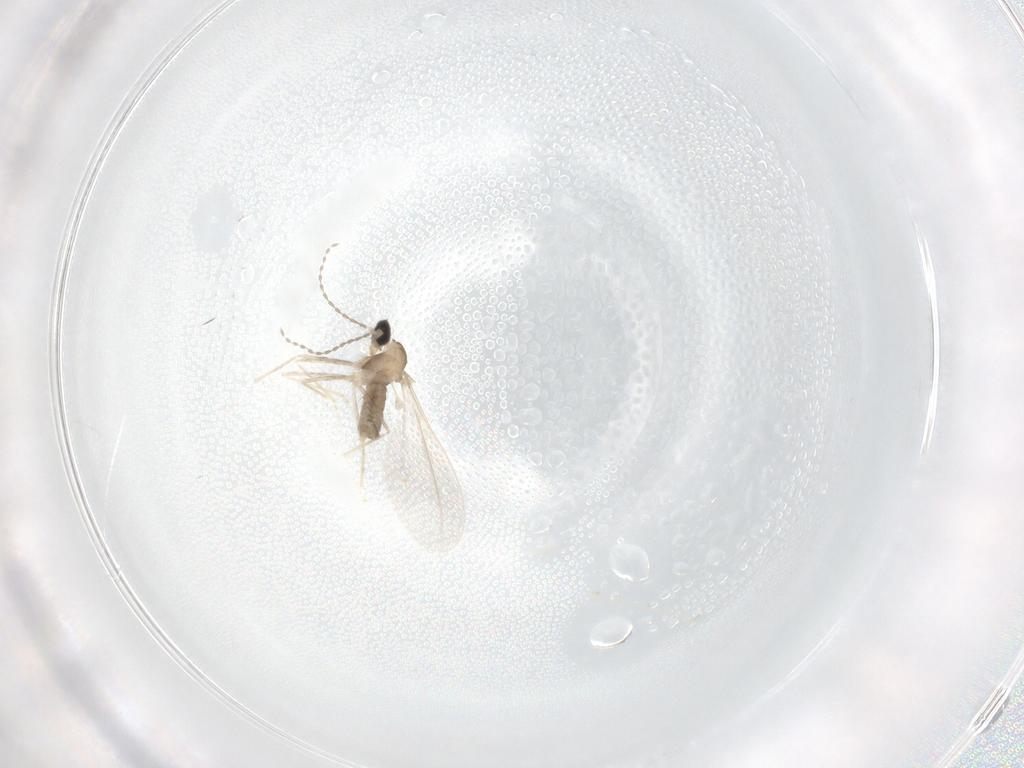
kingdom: Animalia
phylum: Arthropoda
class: Insecta
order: Diptera
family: Cecidomyiidae
